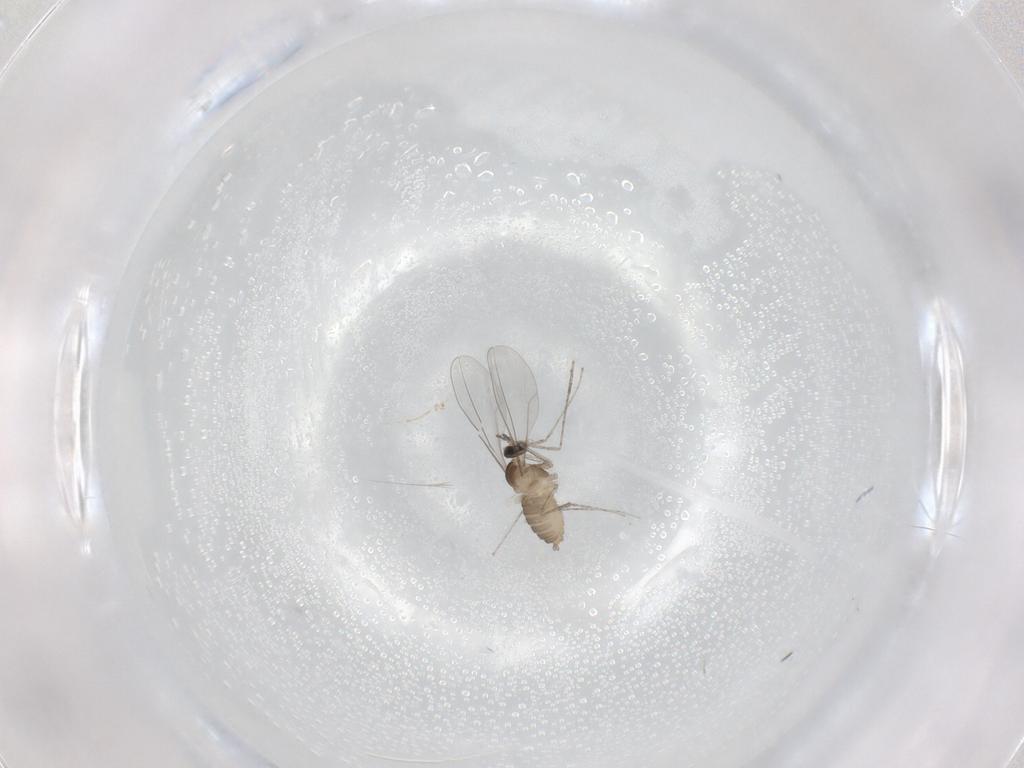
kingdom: Animalia
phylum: Arthropoda
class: Insecta
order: Diptera
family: Cecidomyiidae
